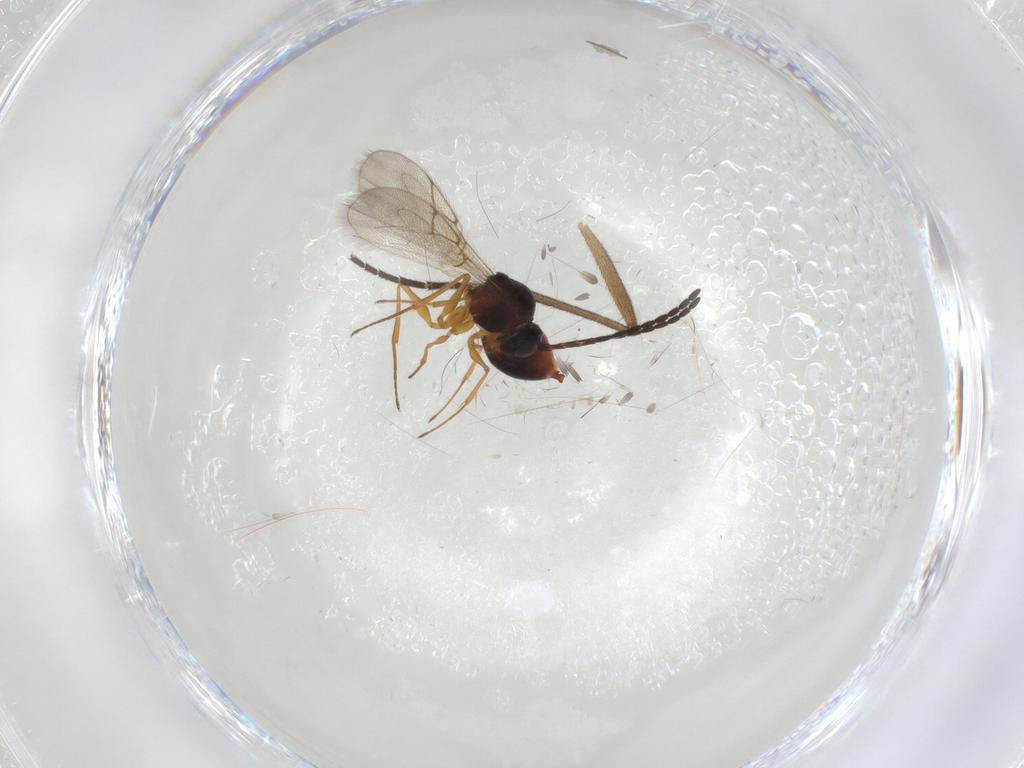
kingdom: Animalia
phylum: Arthropoda
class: Insecta
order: Hymenoptera
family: Figitidae
